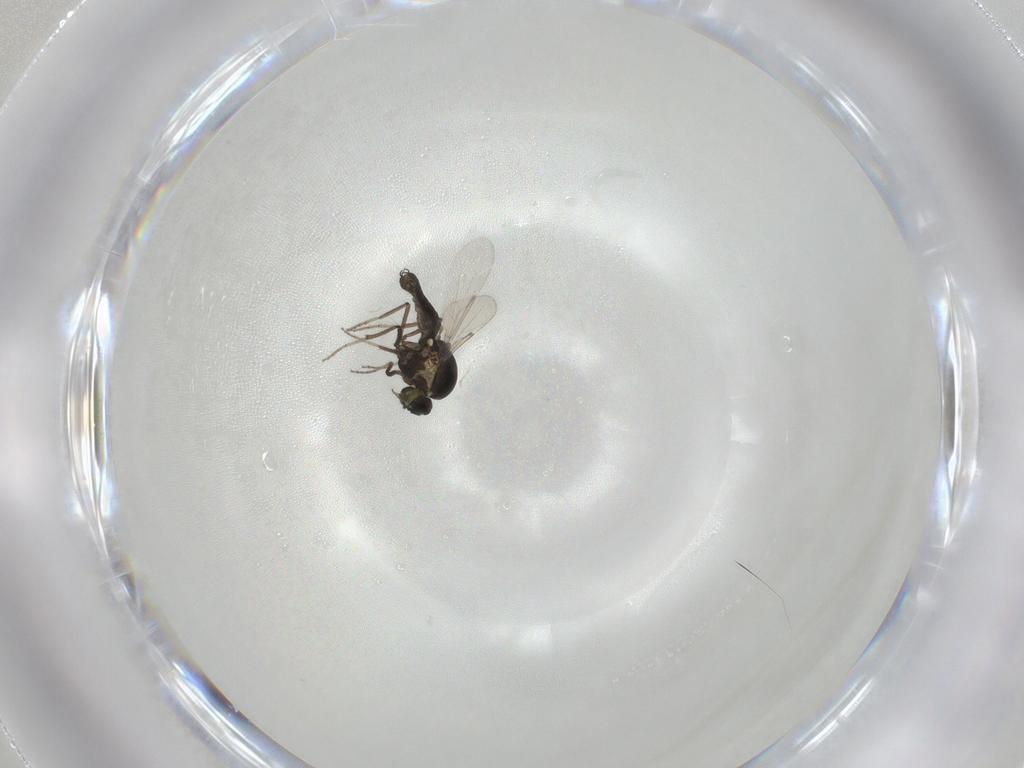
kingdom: Animalia
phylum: Arthropoda
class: Insecta
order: Diptera
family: Ceratopogonidae
